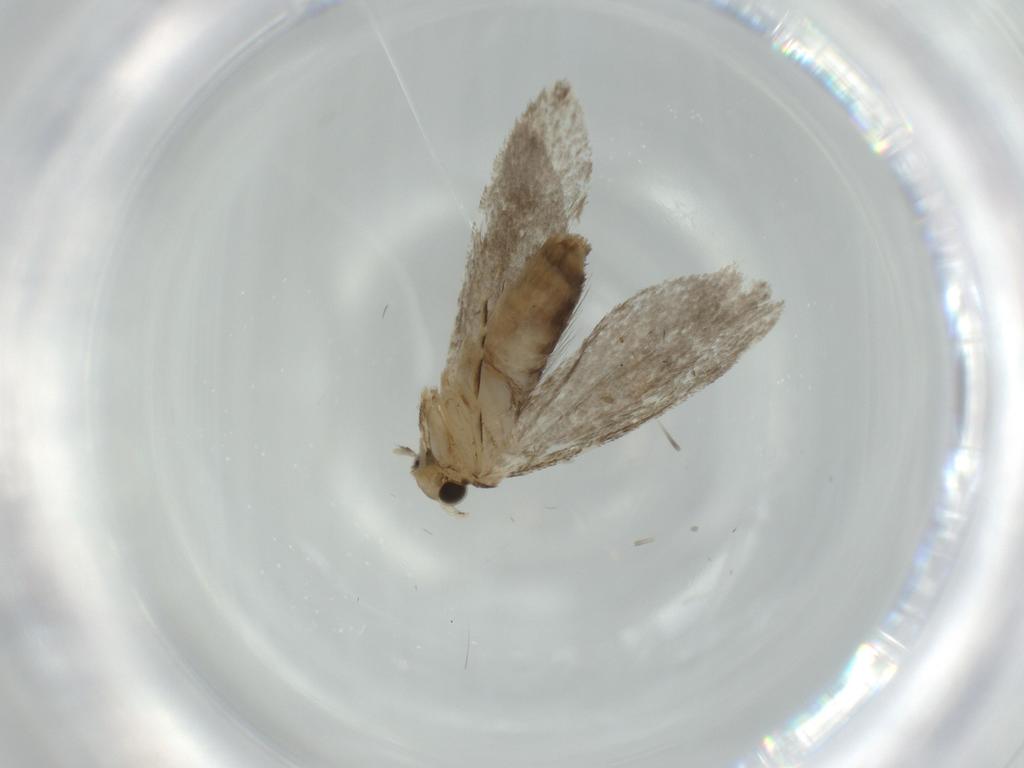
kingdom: Animalia
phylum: Arthropoda
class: Insecta
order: Lepidoptera
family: Tineidae
